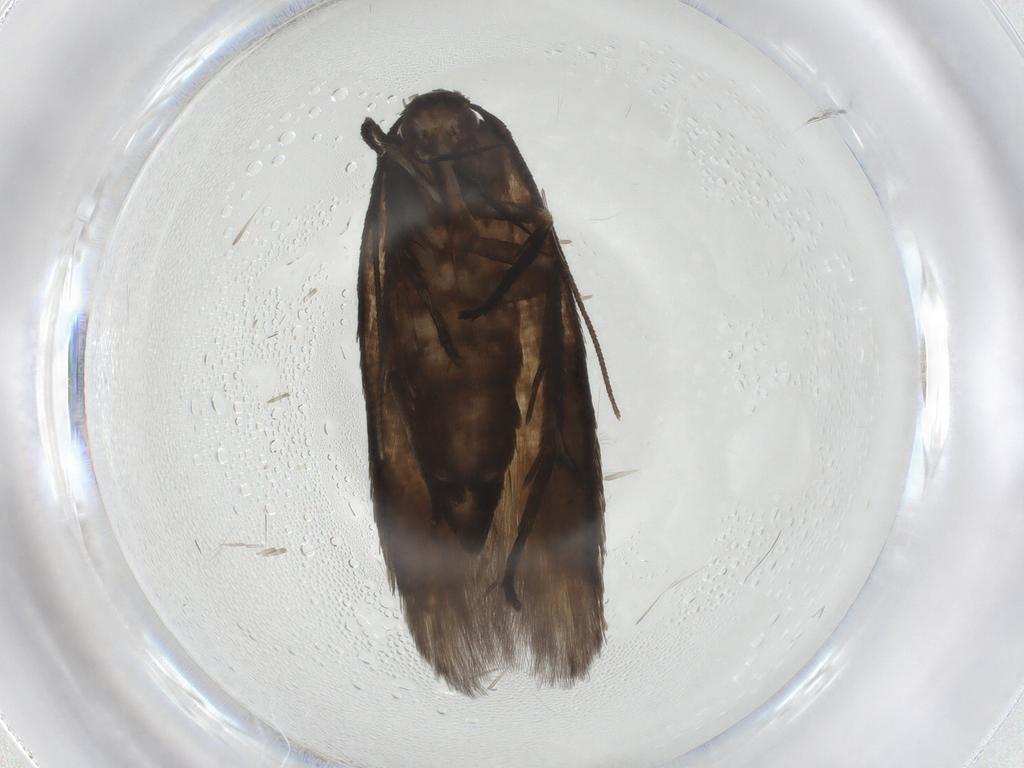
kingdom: Animalia
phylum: Arthropoda
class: Insecta
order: Lepidoptera
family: Cosmopterigidae
